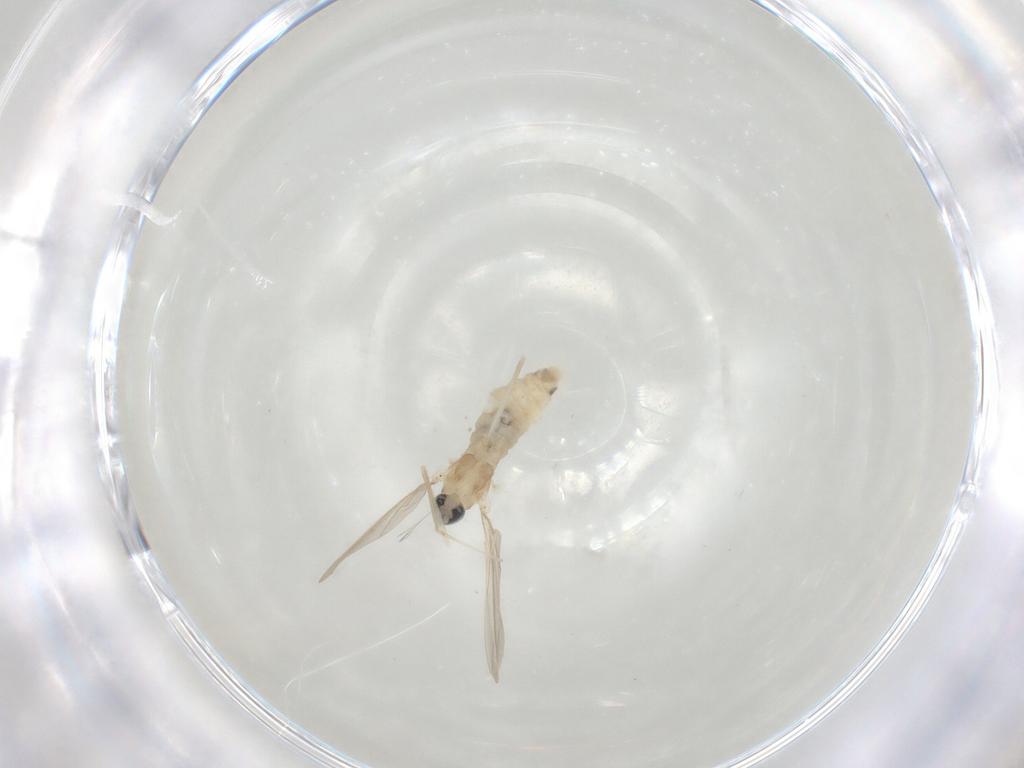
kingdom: Animalia
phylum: Arthropoda
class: Insecta
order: Diptera
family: Cecidomyiidae
